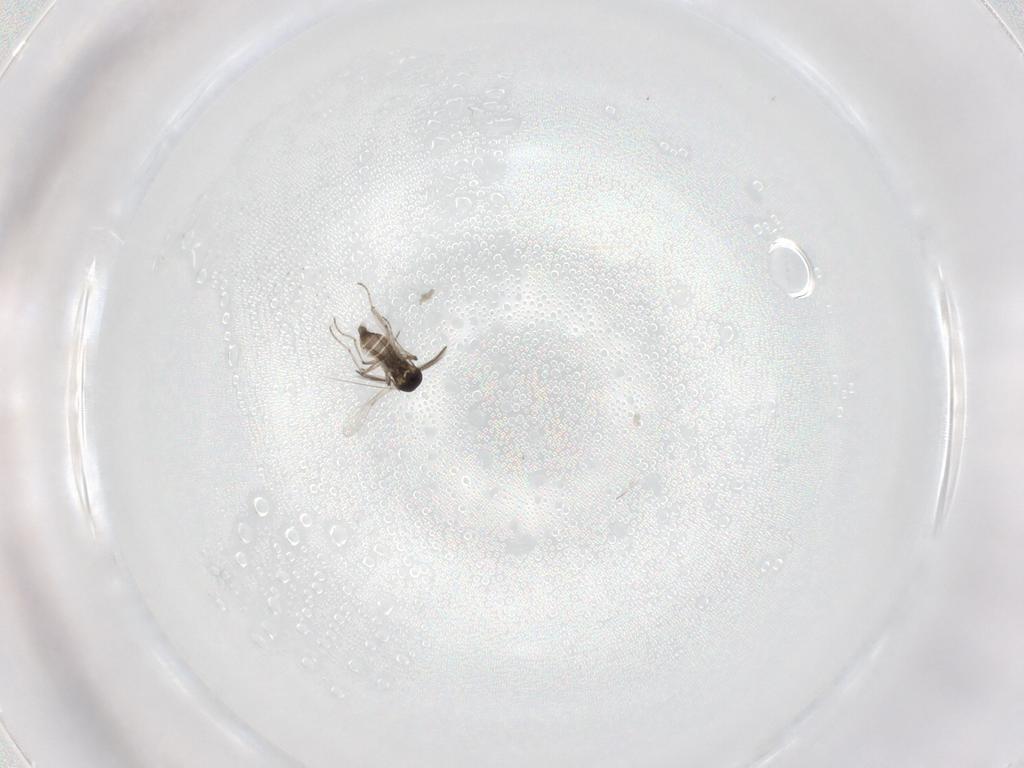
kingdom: Animalia
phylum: Arthropoda
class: Insecta
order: Diptera
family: Ceratopogonidae
